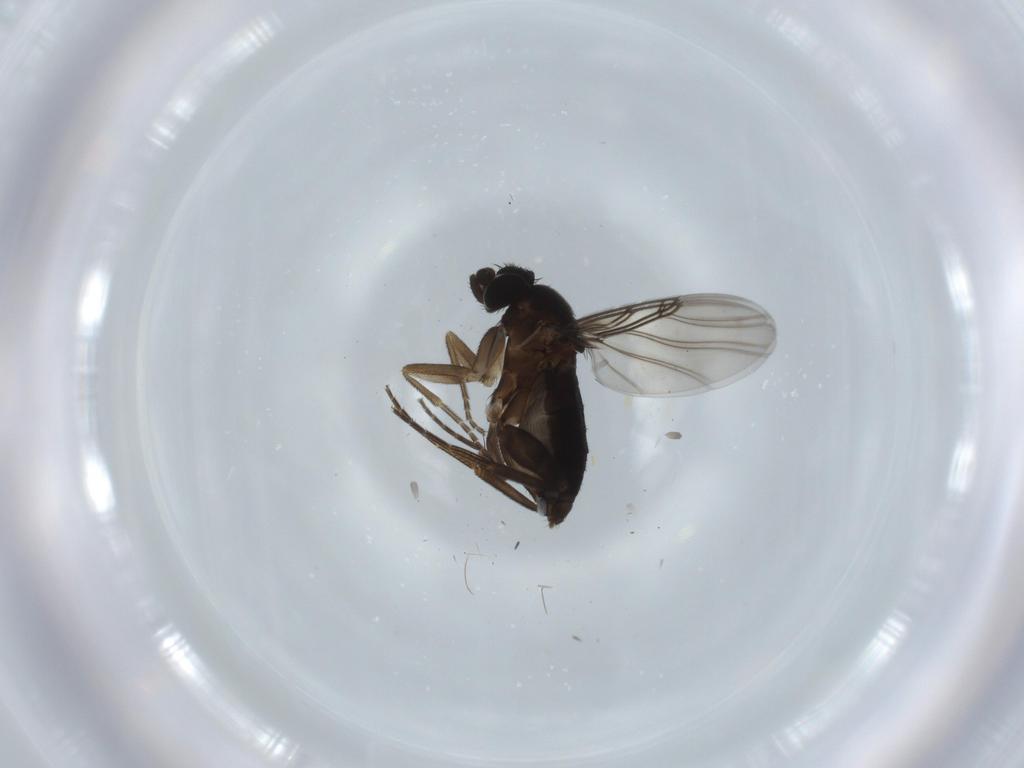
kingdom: Animalia
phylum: Arthropoda
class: Insecta
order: Diptera
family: Phoridae
